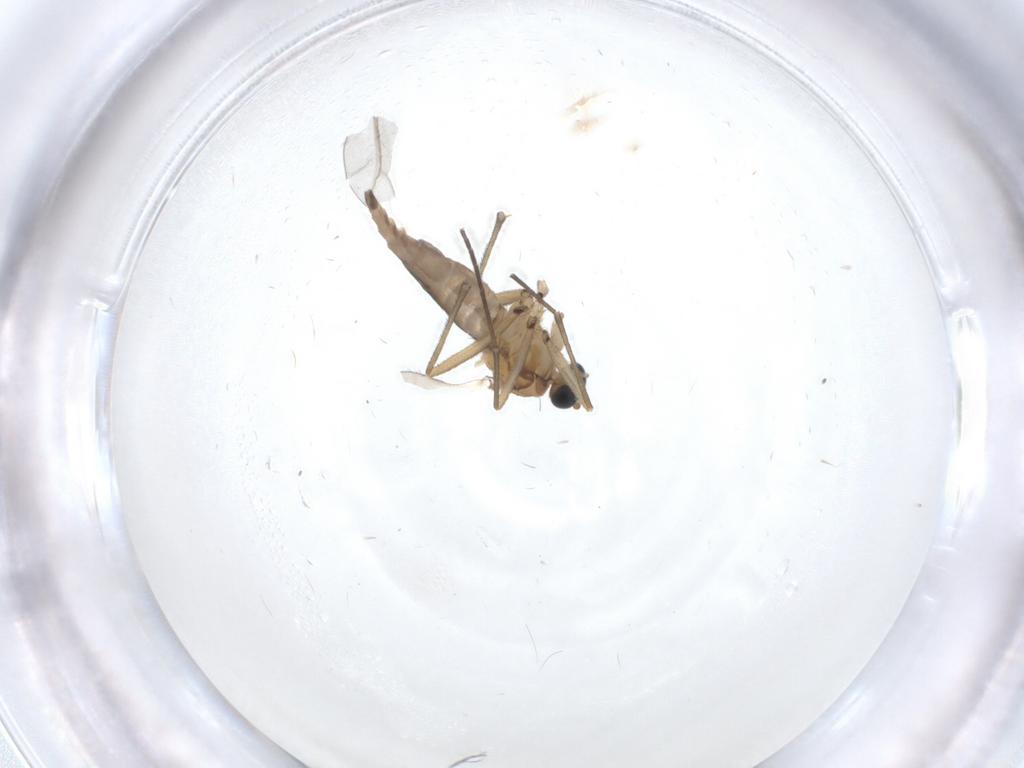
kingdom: Animalia
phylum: Arthropoda
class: Insecta
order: Diptera
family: Sciaridae
